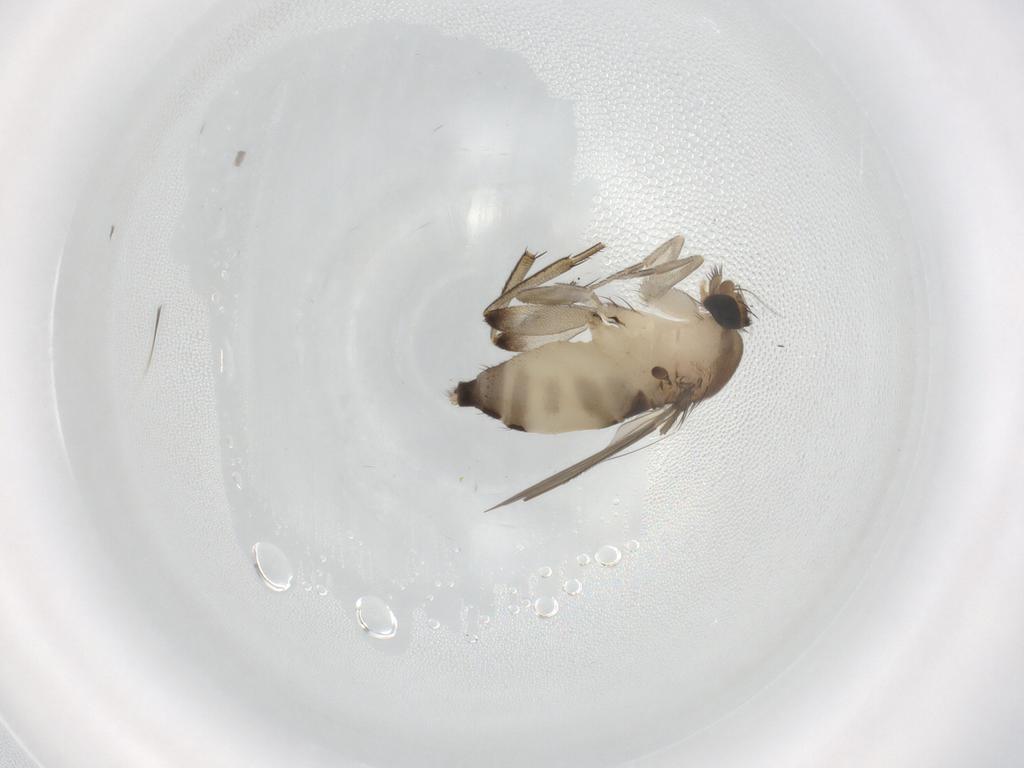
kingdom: Animalia
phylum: Arthropoda
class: Insecta
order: Diptera
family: Phoridae
